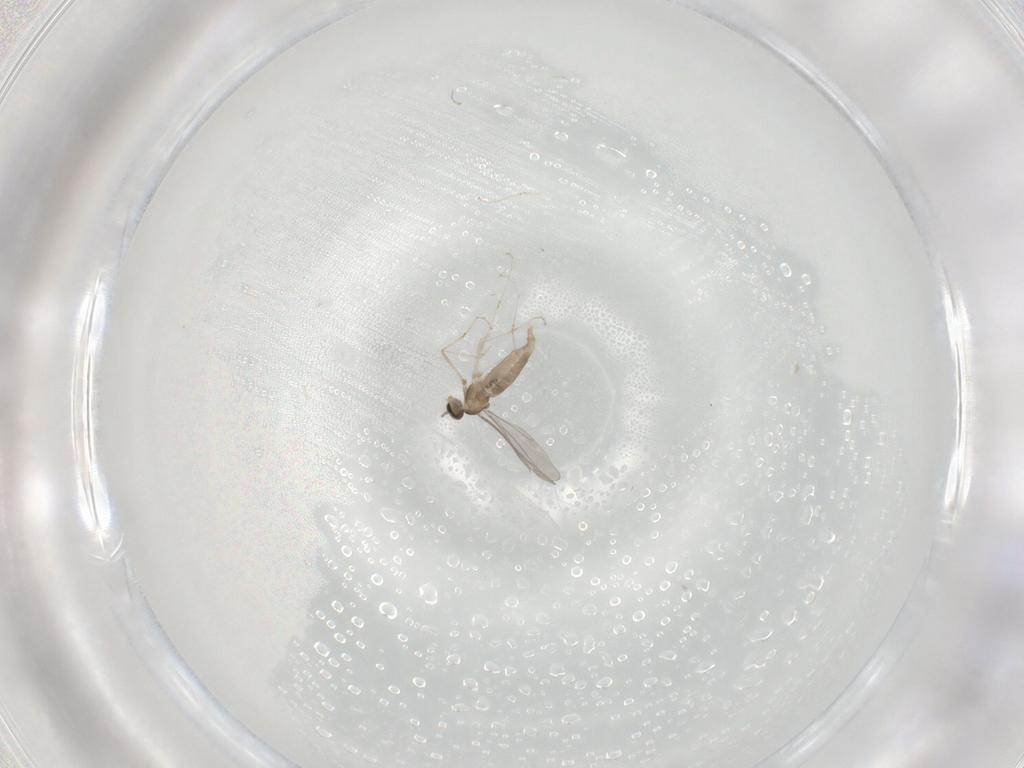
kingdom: Animalia
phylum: Arthropoda
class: Insecta
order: Diptera
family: Cecidomyiidae
